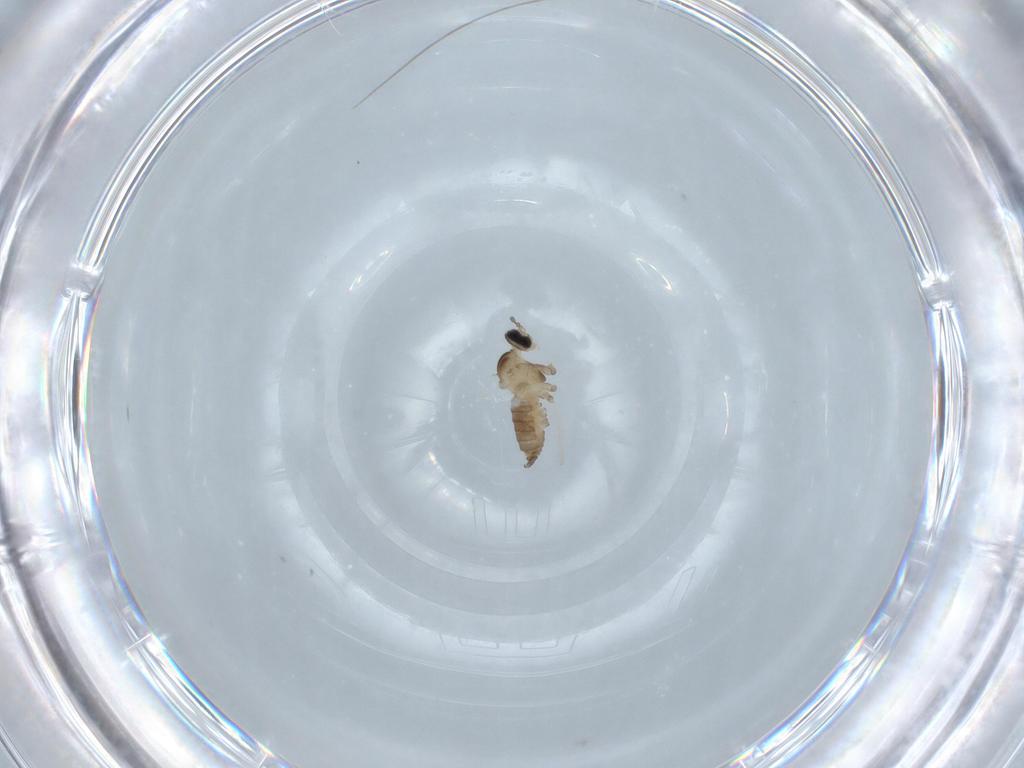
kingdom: Animalia
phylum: Arthropoda
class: Insecta
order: Diptera
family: Cecidomyiidae
